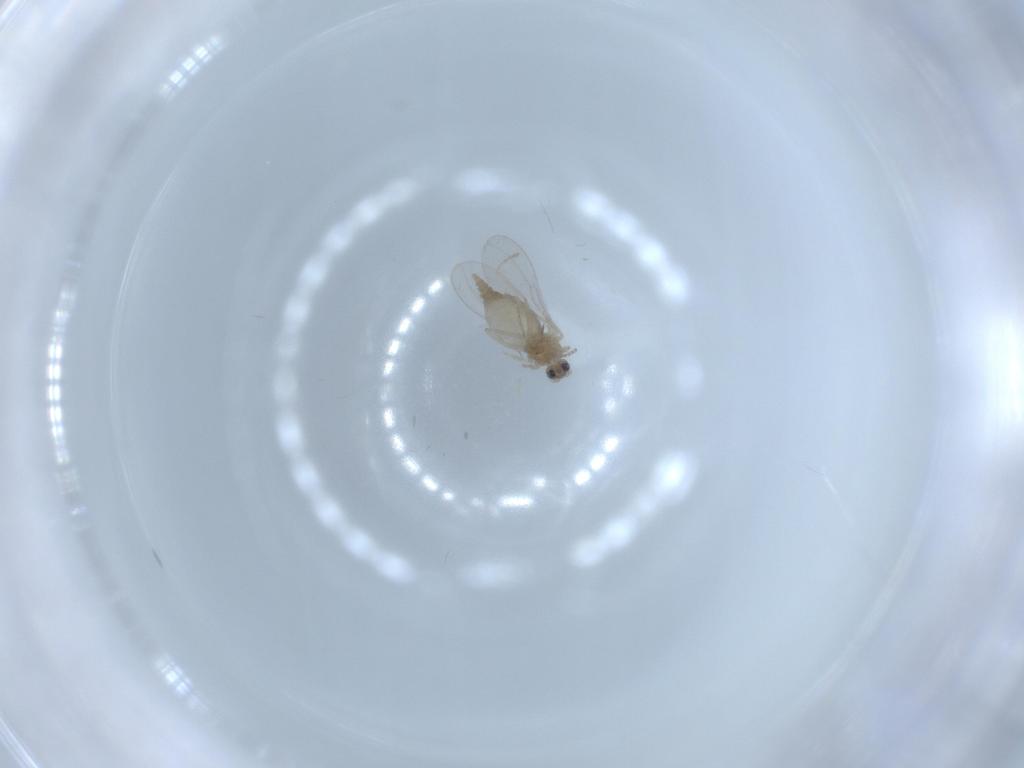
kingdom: Animalia
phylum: Arthropoda
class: Insecta
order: Diptera
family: Cecidomyiidae
